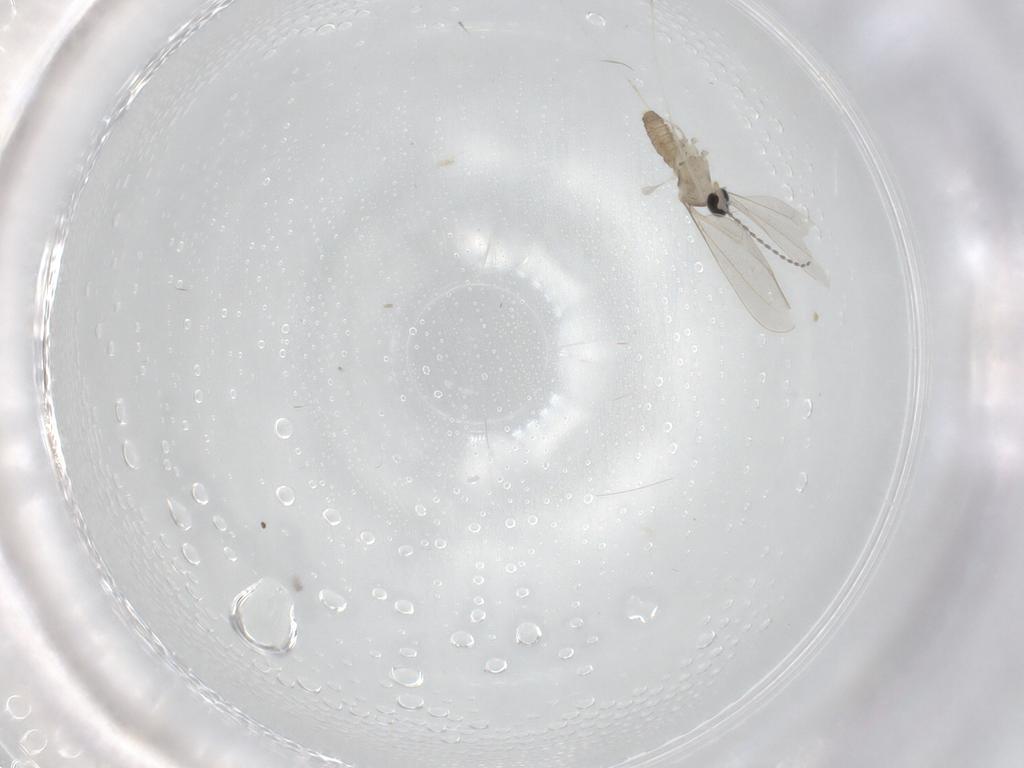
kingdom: Animalia
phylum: Arthropoda
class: Insecta
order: Diptera
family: Cecidomyiidae
